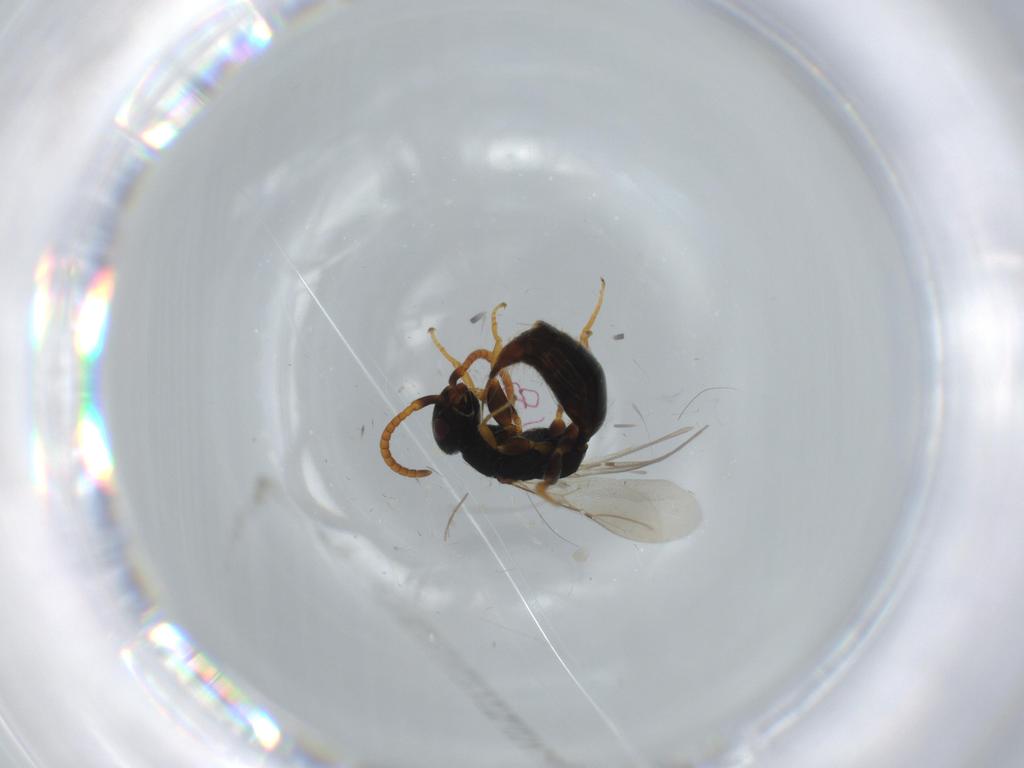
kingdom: Animalia
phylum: Arthropoda
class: Insecta
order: Hymenoptera
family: Bethylidae
